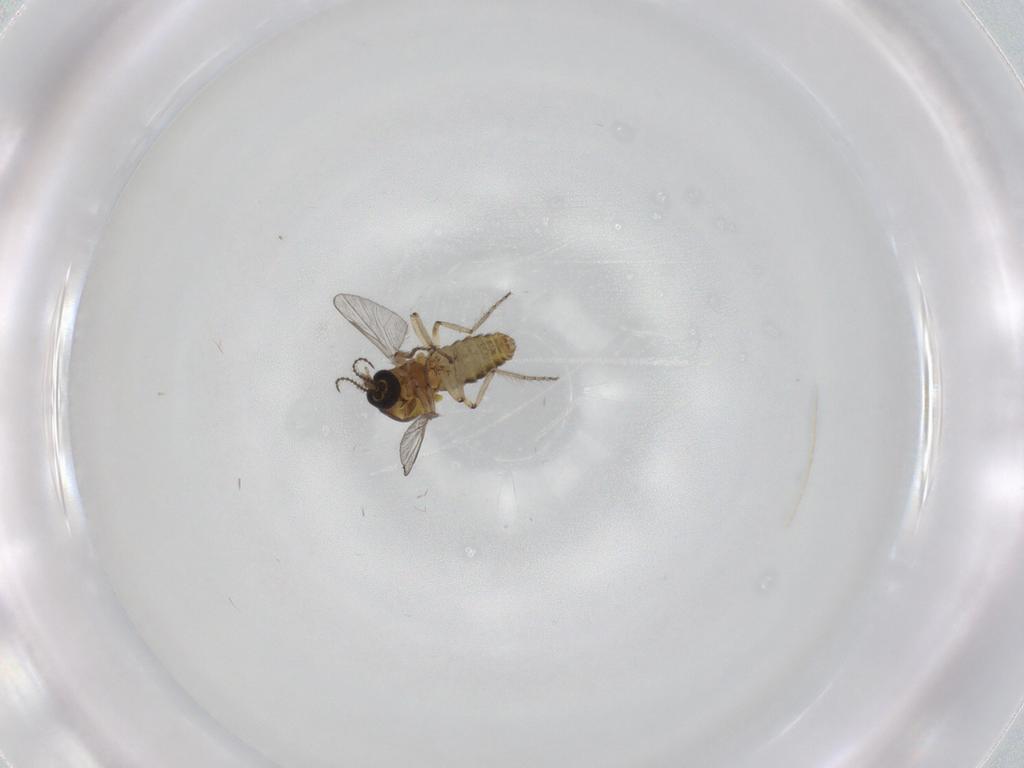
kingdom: Animalia
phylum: Arthropoda
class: Insecta
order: Diptera
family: Ceratopogonidae
